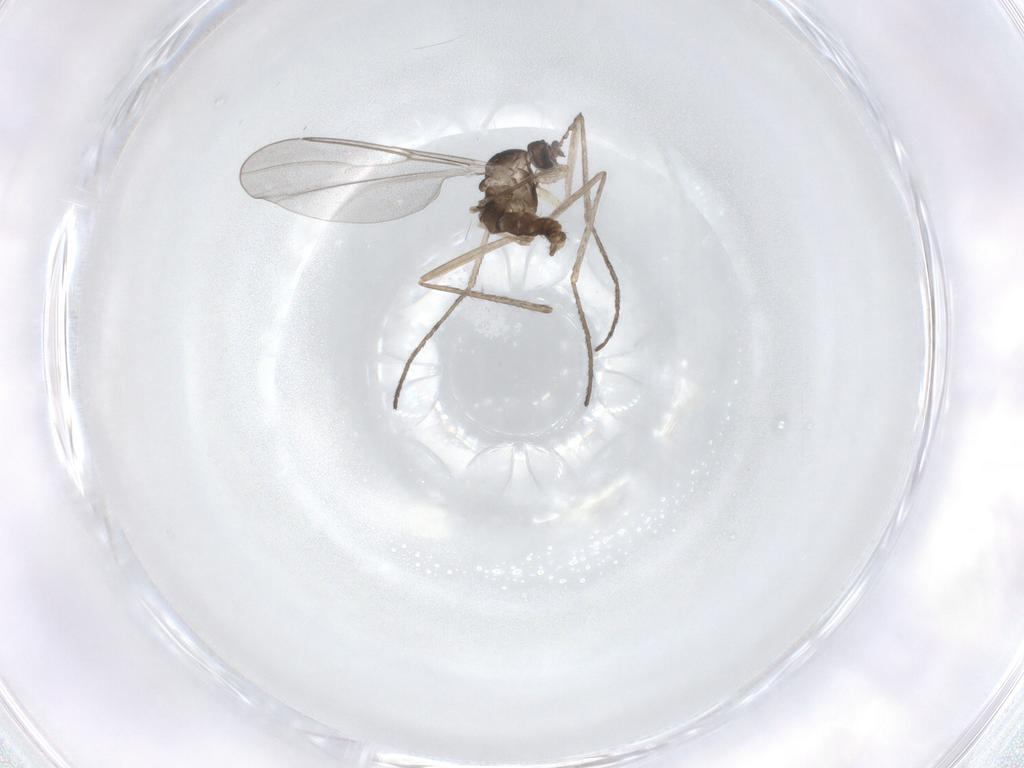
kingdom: Animalia
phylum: Arthropoda
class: Insecta
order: Diptera
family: Cecidomyiidae
